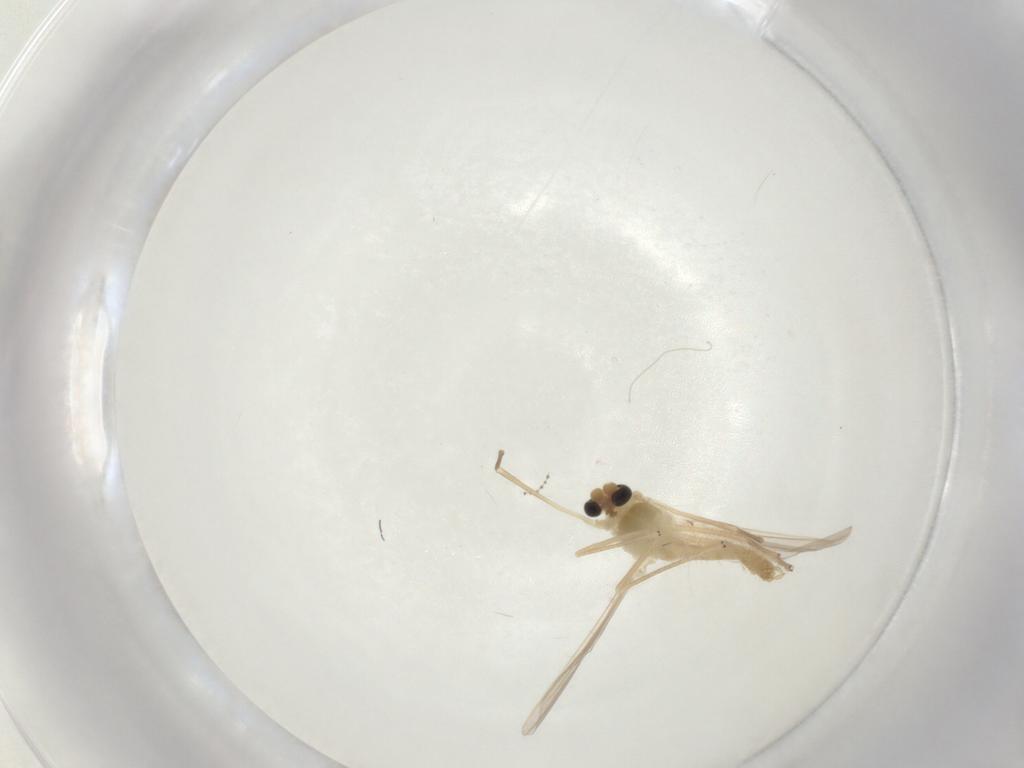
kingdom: Animalia
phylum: Arthropoda
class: Insecta
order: Diptera
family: Chironomidae
